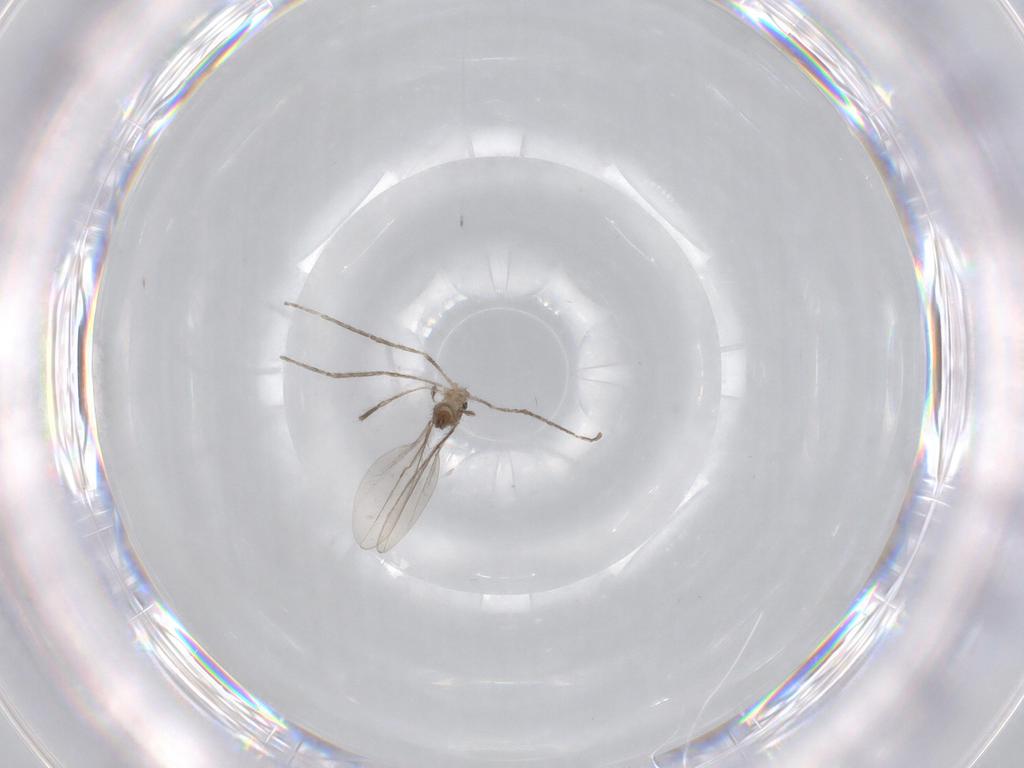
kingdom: Animalia
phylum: Arthropoda
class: Insecta
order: Diptera
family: Cecidomyiidae
